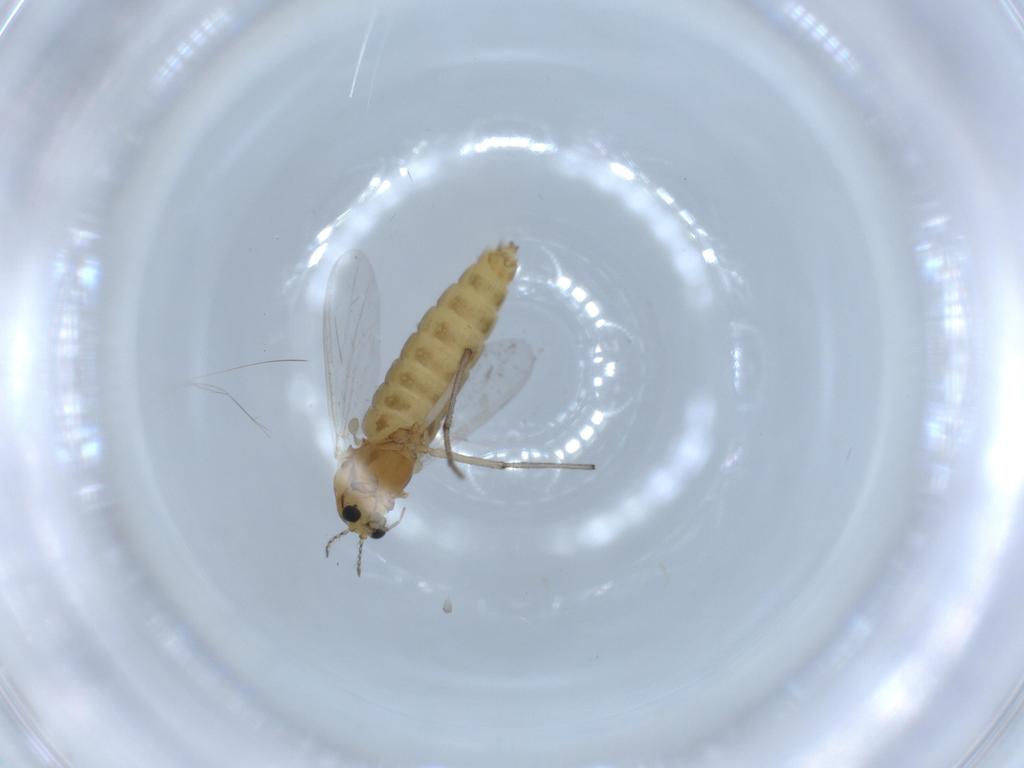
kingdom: Animalia
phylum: Arthropoda
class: Insecta
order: Diptera
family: Chironomidae
